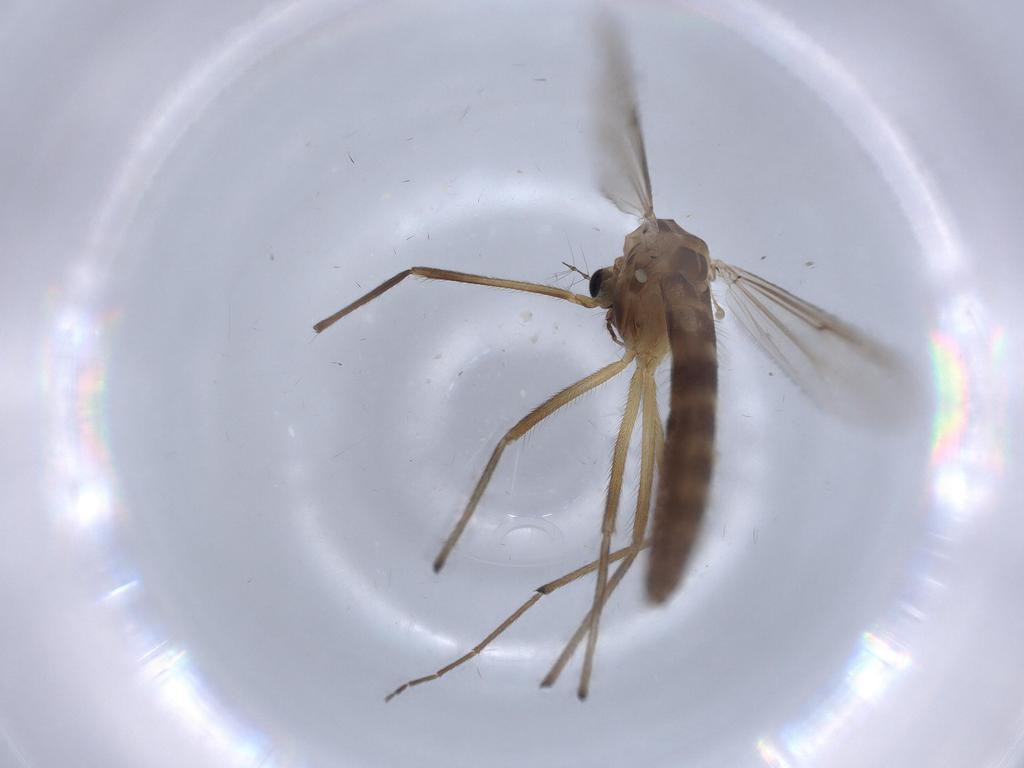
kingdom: Animalia
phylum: Arthropoda
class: Insecta
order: Diptera
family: Chironomidae
